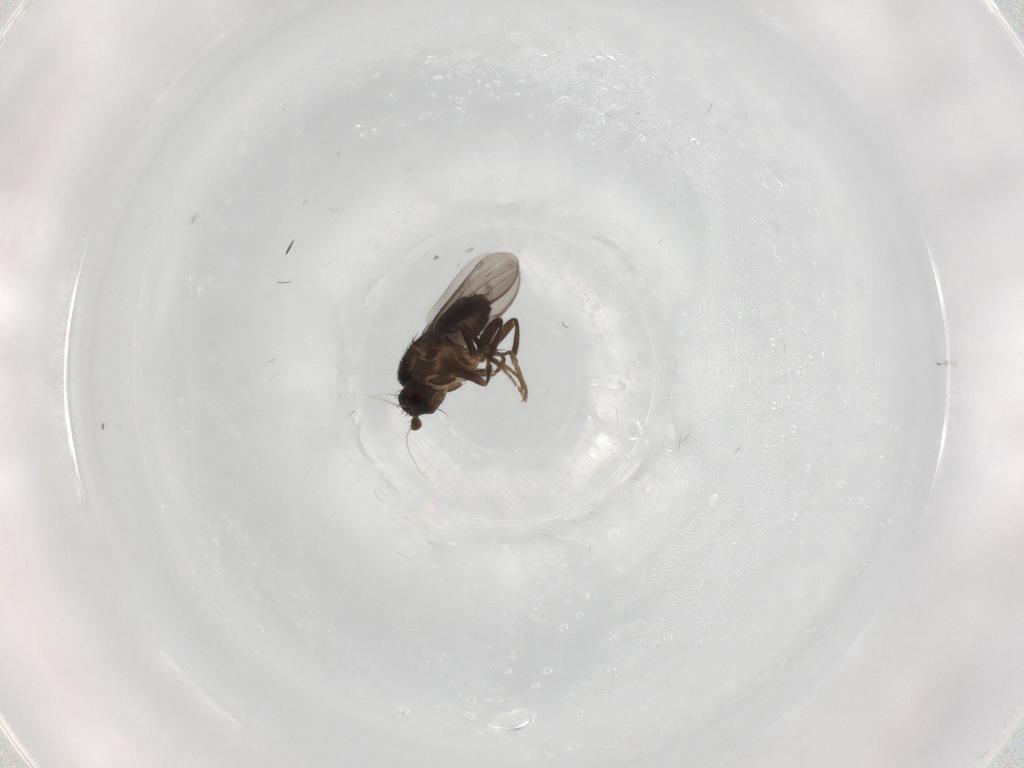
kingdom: Animalia
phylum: Arthropoda
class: Insecta
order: Diptera
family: Sphaeroceridae
